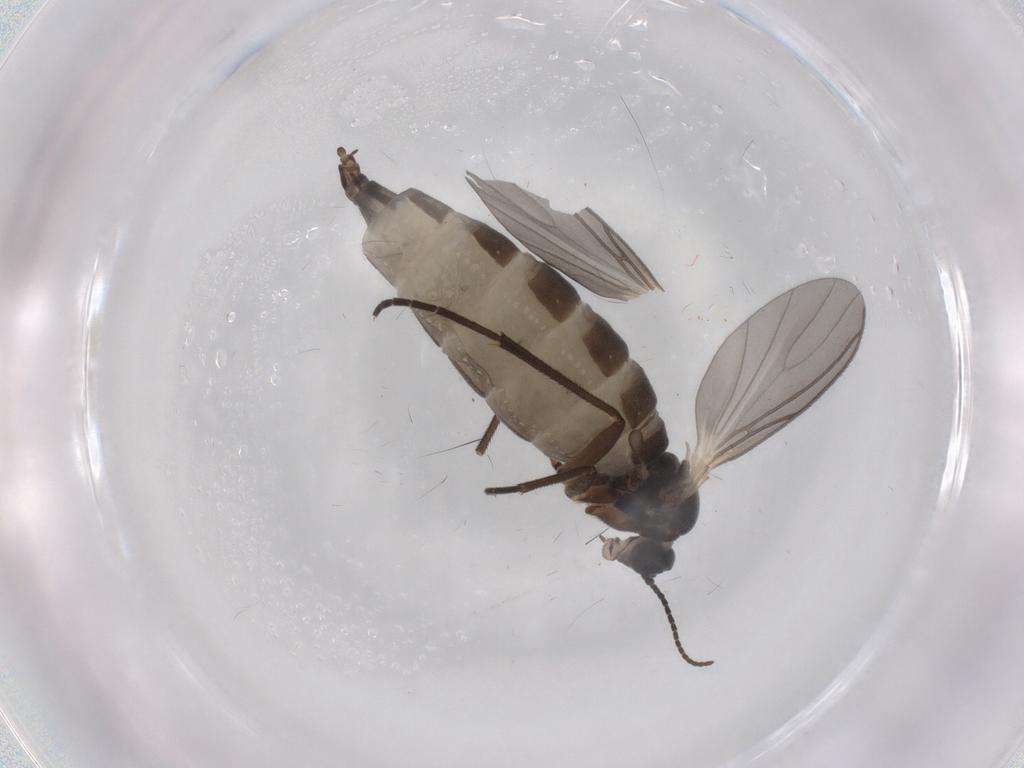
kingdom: Animalia
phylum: Arthropoda
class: Insecta
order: Diptera
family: Sciaridae
